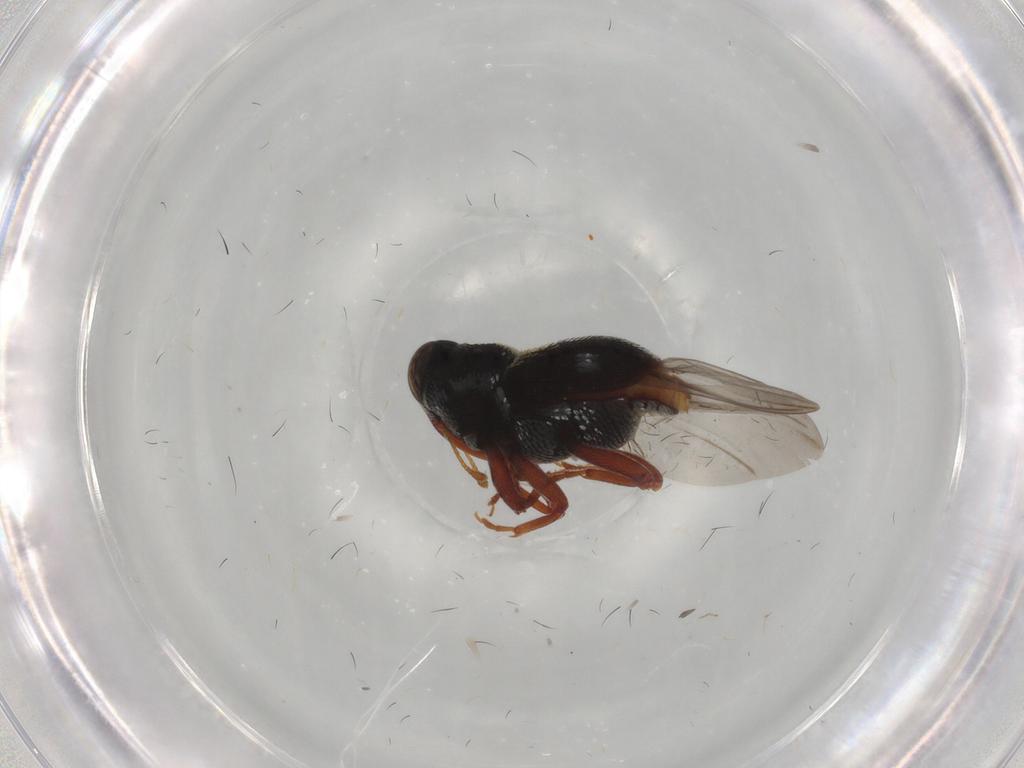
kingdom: Animalia
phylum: Arthropoda
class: Insecta
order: Coleoptera
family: Curculionidae
